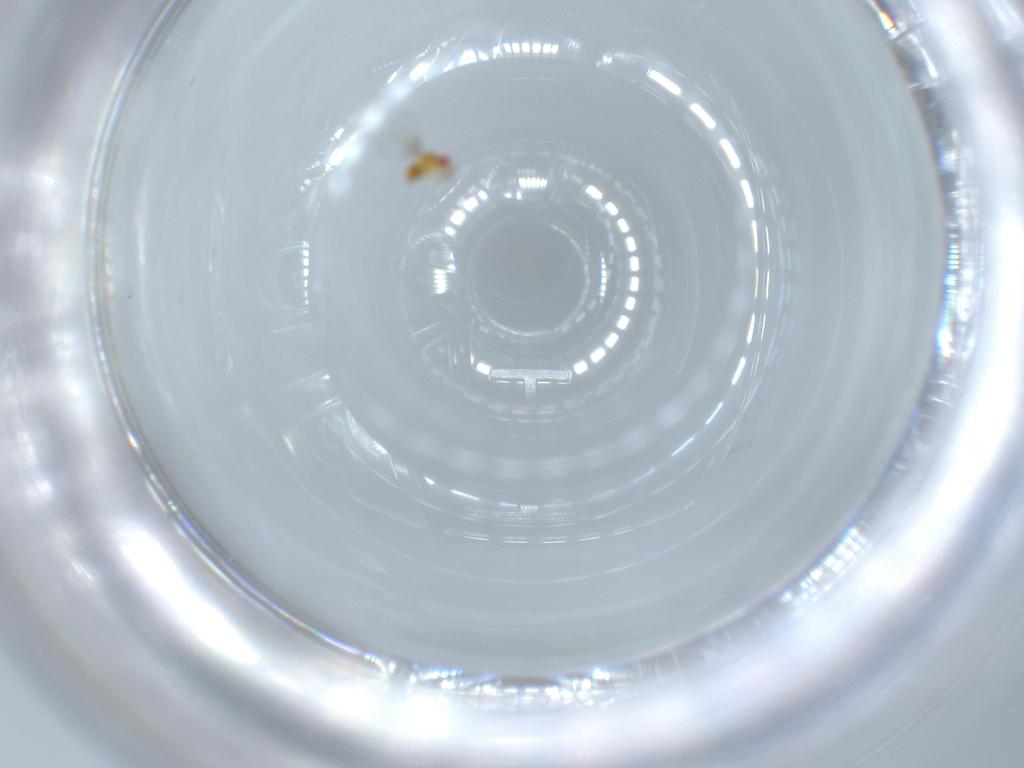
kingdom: Animalia
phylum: Arthropoda
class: Insecta
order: Hymenoptera
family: Trichogrammatidae
